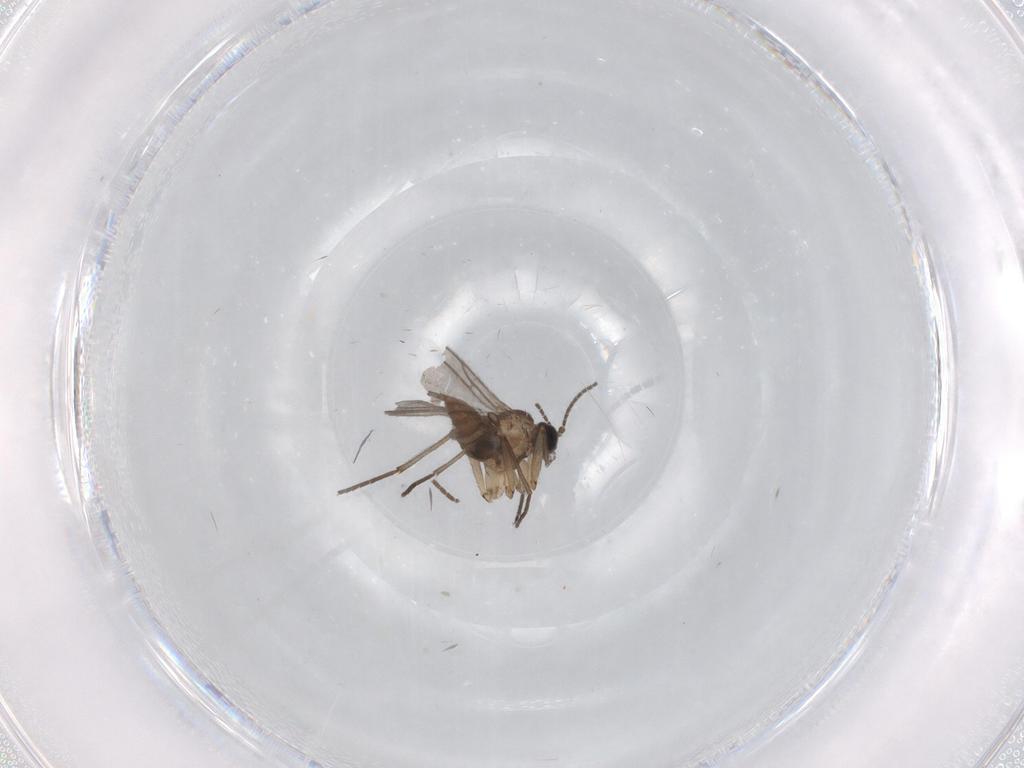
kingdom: Animalia
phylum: Arthropoda
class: Insecta
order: Diptera
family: Sciaridae
